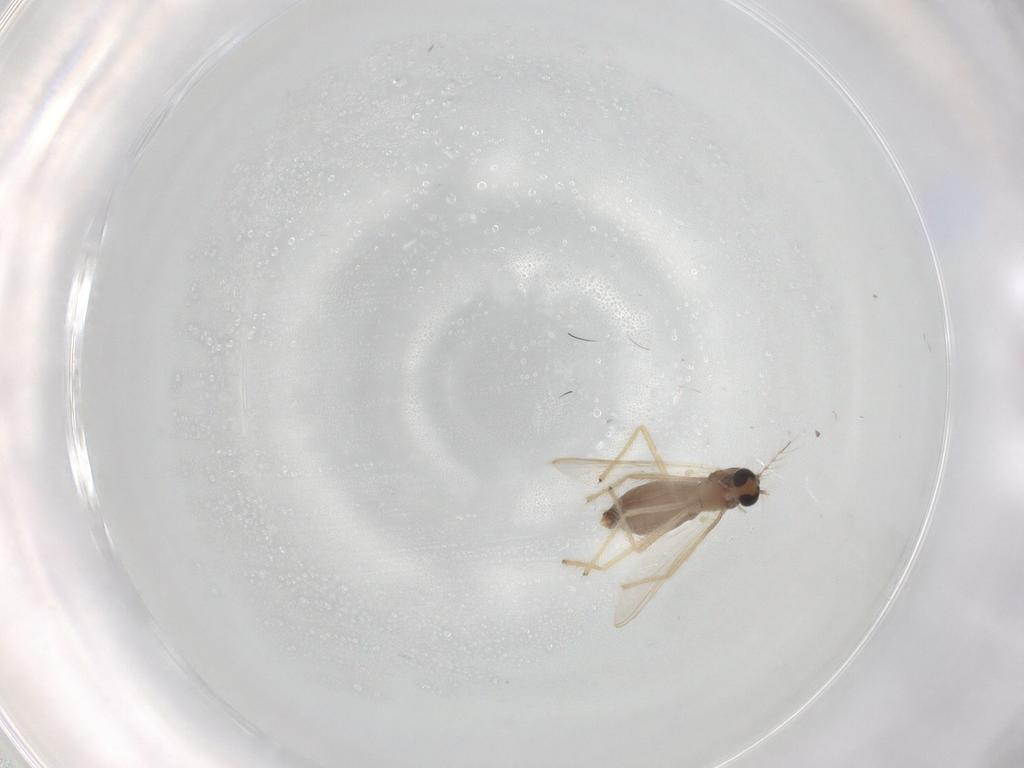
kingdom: Animalia
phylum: Arthropoda
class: Insecta
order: Diptera
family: Chironomidae
